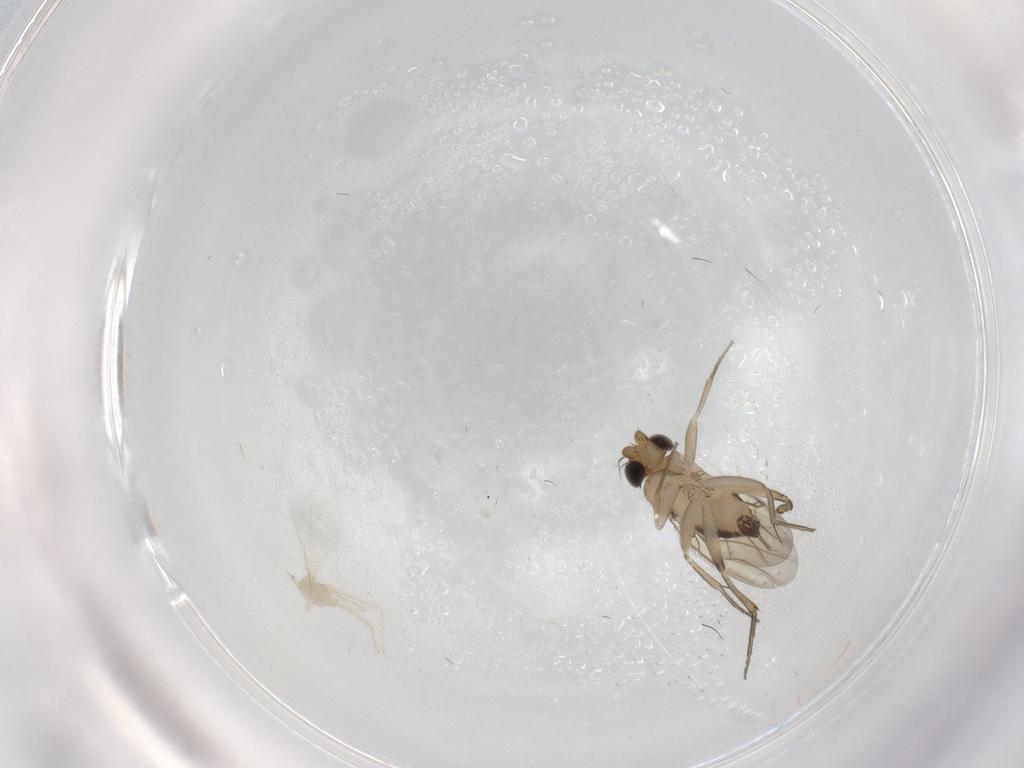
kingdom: Animalia
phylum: Arthropoda
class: Insecta
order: Diptera
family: Phoridae
